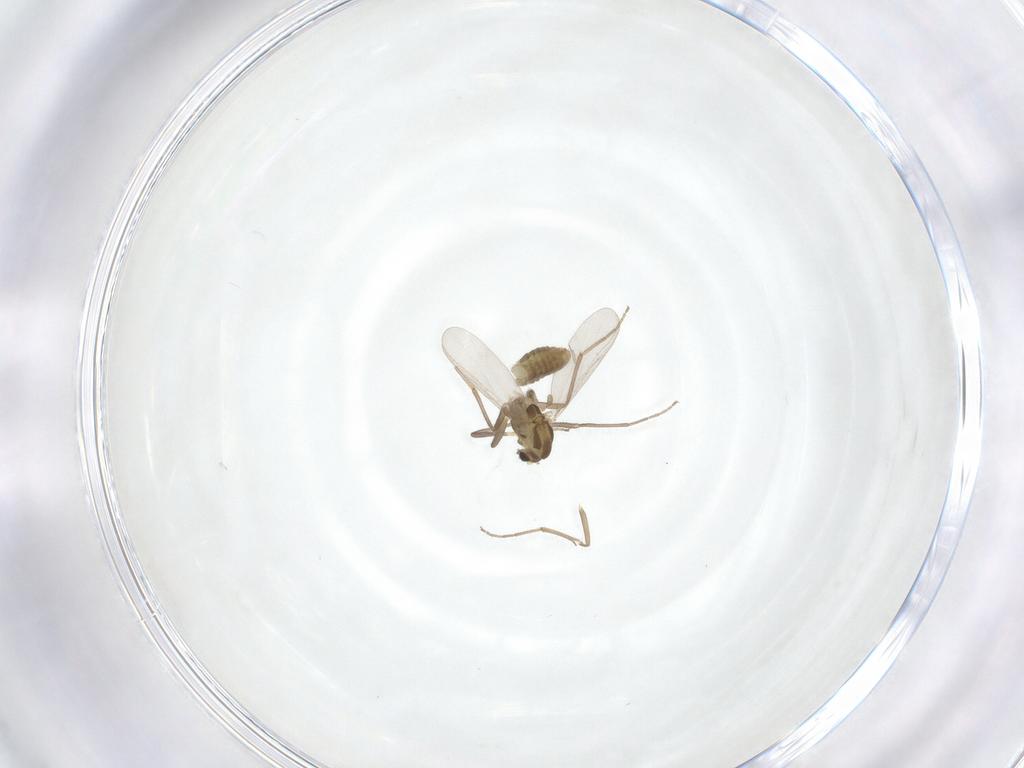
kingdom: Animalia
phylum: Arthropoda
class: Insecta
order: Diptera
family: Chironomidae
